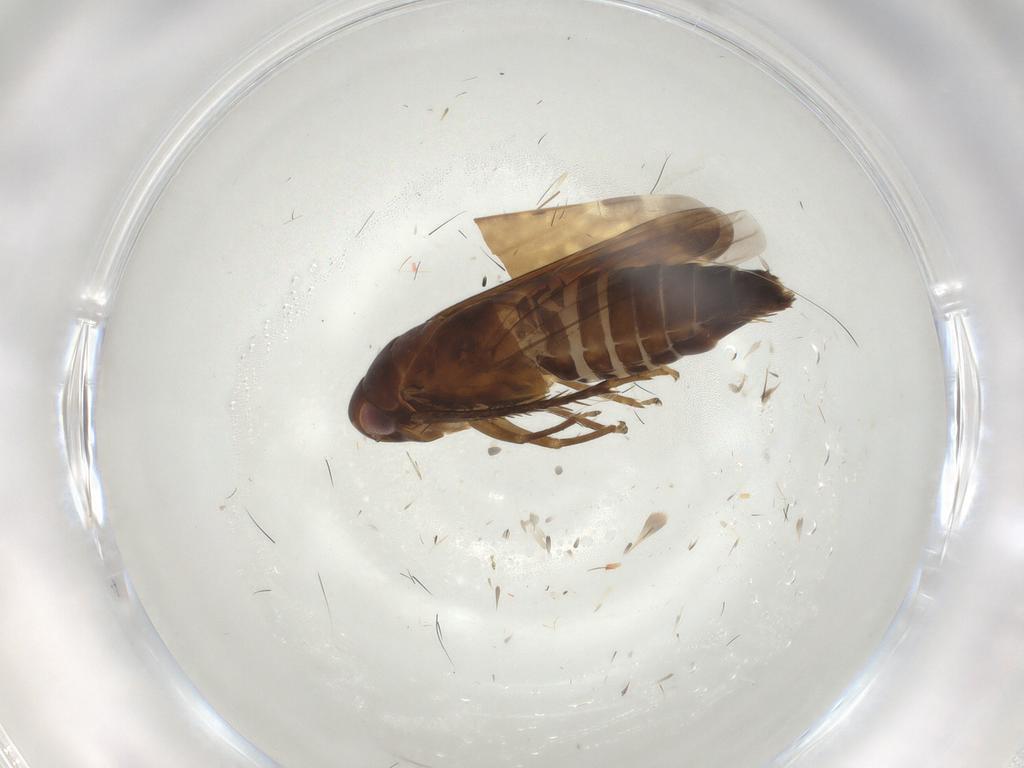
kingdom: Animalia
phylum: Arthropoda
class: Insecta
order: Hemiptera
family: Cicadellidae
